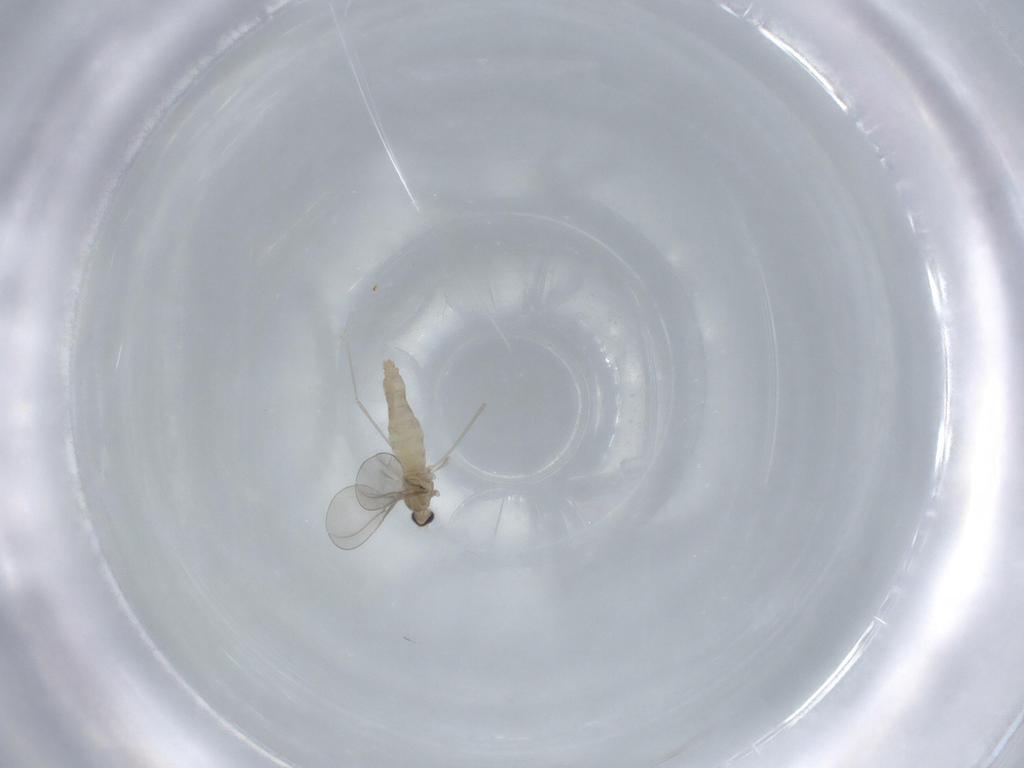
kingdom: Animalia
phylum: Arthropoda
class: Insecta
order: Diptera
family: Cecidomyiidae
